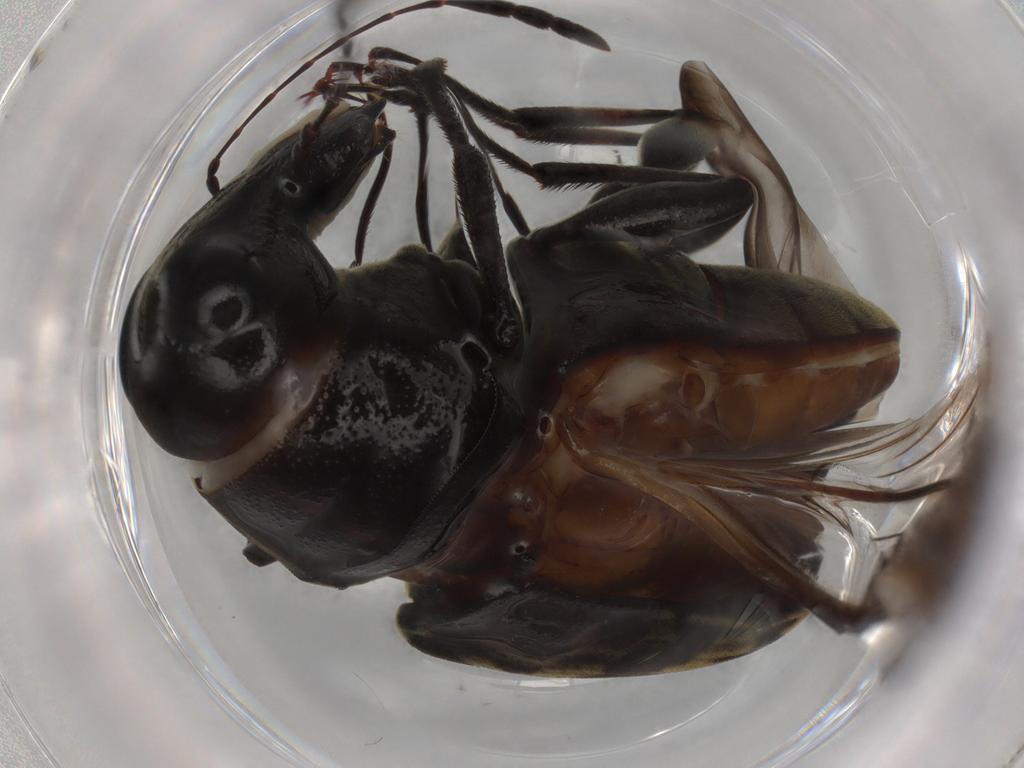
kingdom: Animalia
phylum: Arthropoda
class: Insecta
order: Coleoptera
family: Anthribidae
